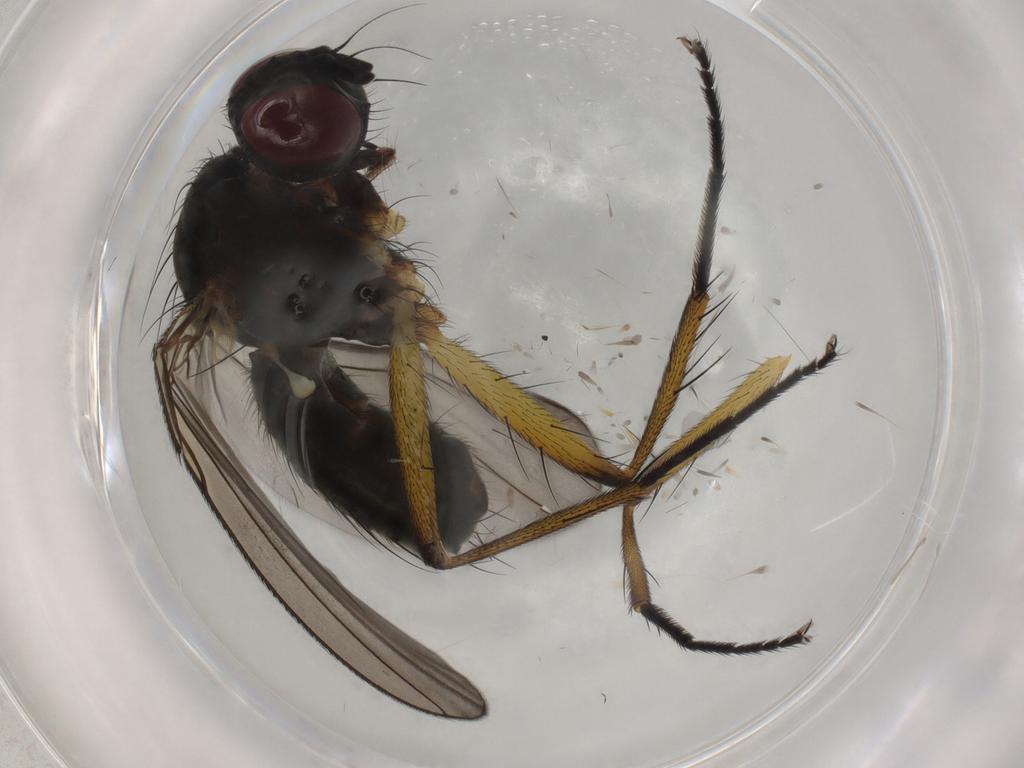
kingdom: Animalia
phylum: Arthropoda
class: Insecta
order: Diptera
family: Muscidae
